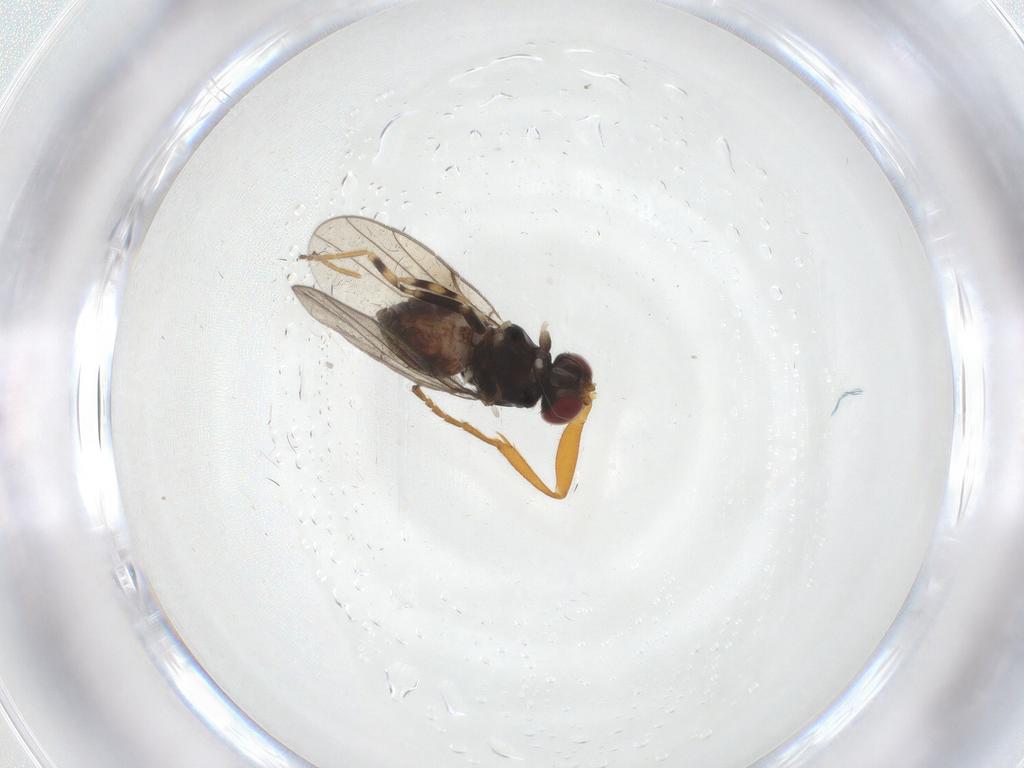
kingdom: Animalia
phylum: Arthropoda
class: Insecta
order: Diptera
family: Chloropidae
